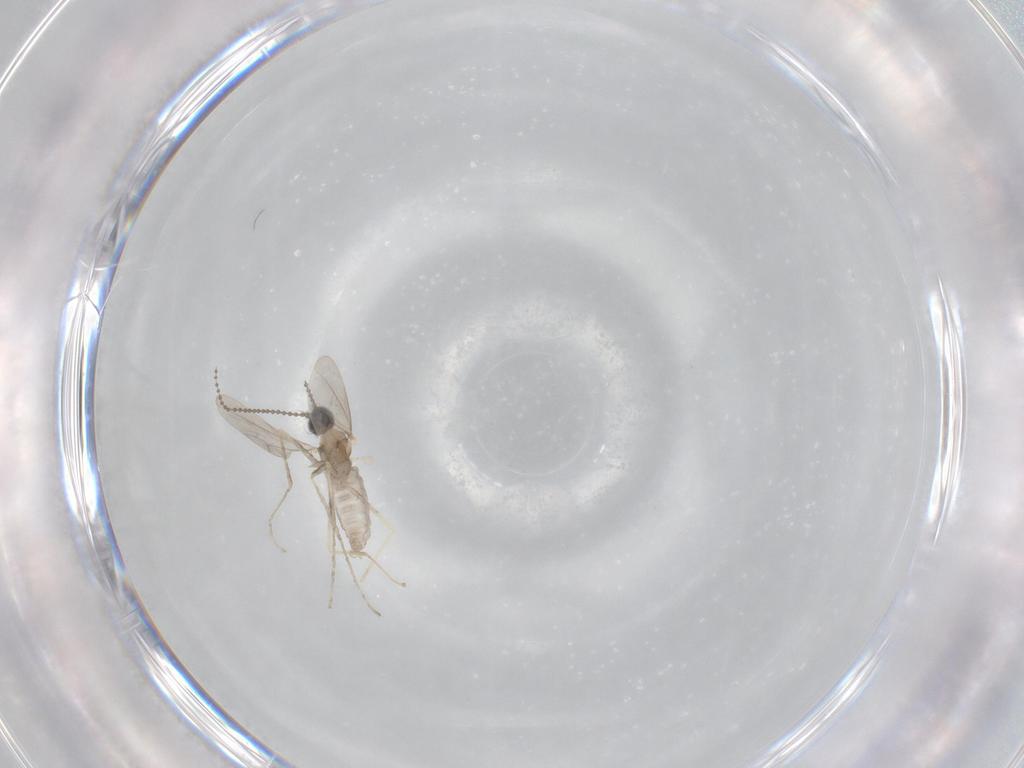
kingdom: Animalia
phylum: Arthropoda
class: Insecta
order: Diptera
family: Cecidomyiidae
